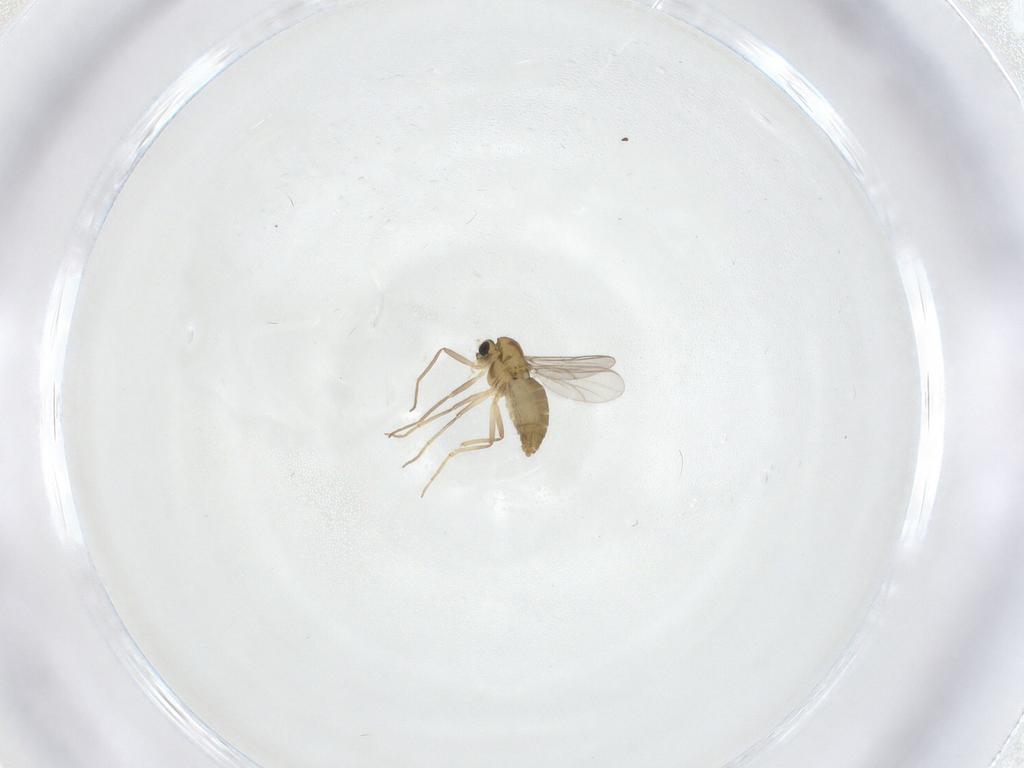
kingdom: Animalia
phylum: Arthropoda
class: Insecta
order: Diptera
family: Chironomidae
